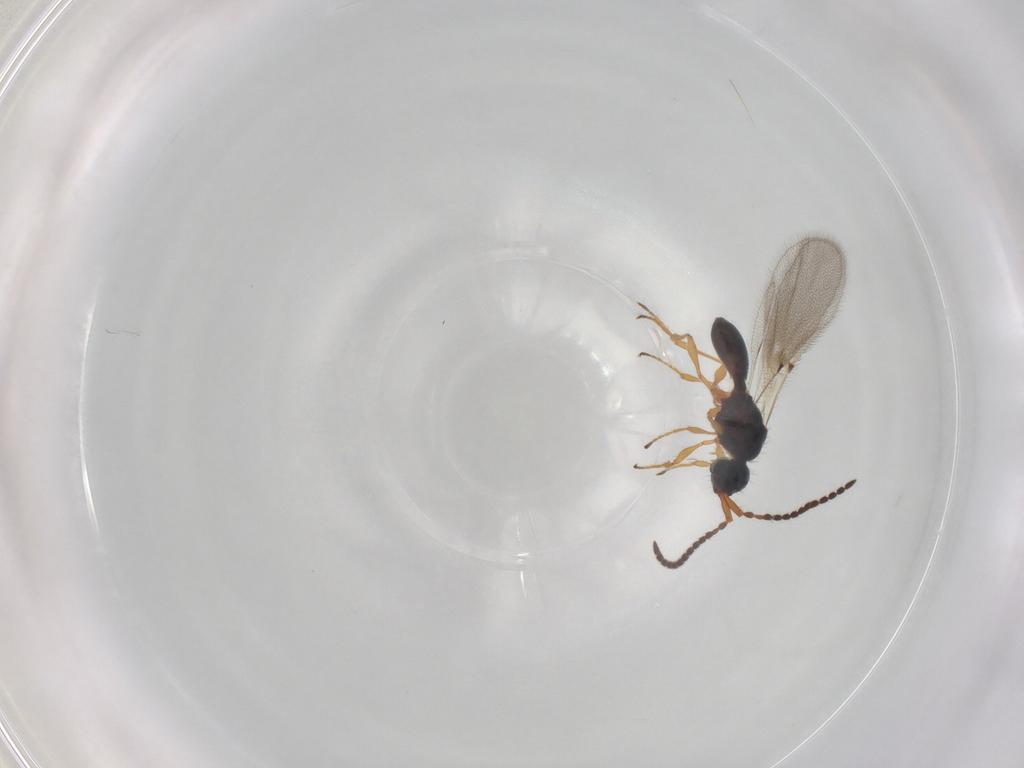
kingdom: Animalia
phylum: Arthropoda
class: Insecta
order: Hymenoptera
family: Diapriidae
